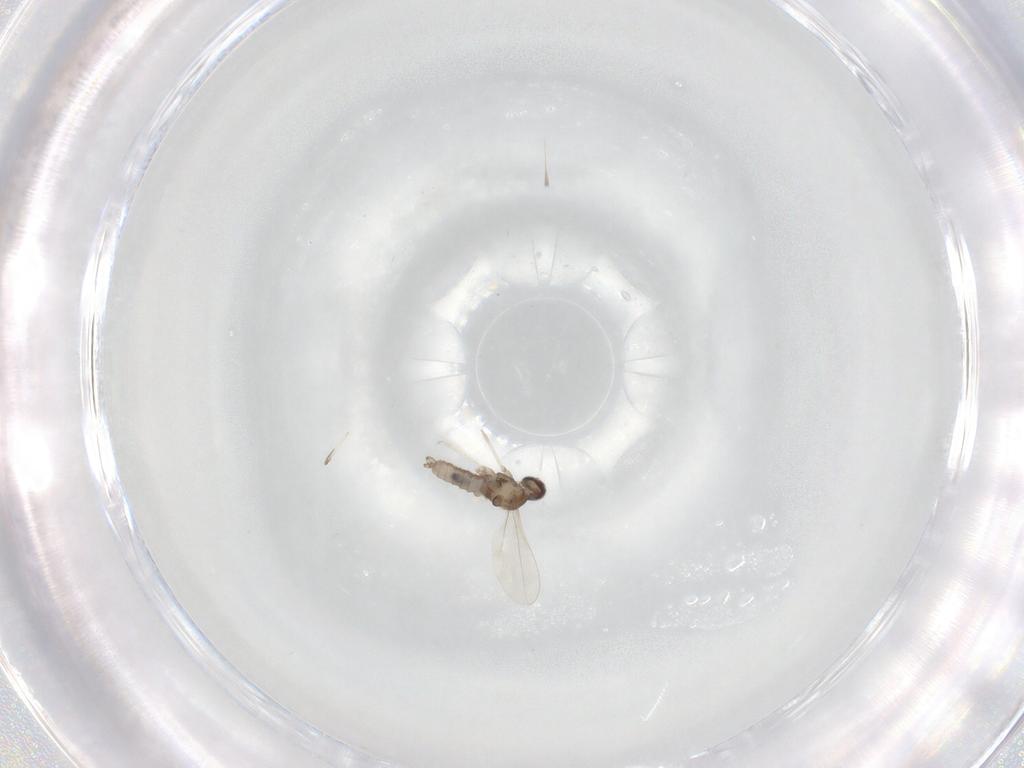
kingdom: Animalia
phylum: Arthropoda
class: Insecta
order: Diptera
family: Cecidomyiidae
